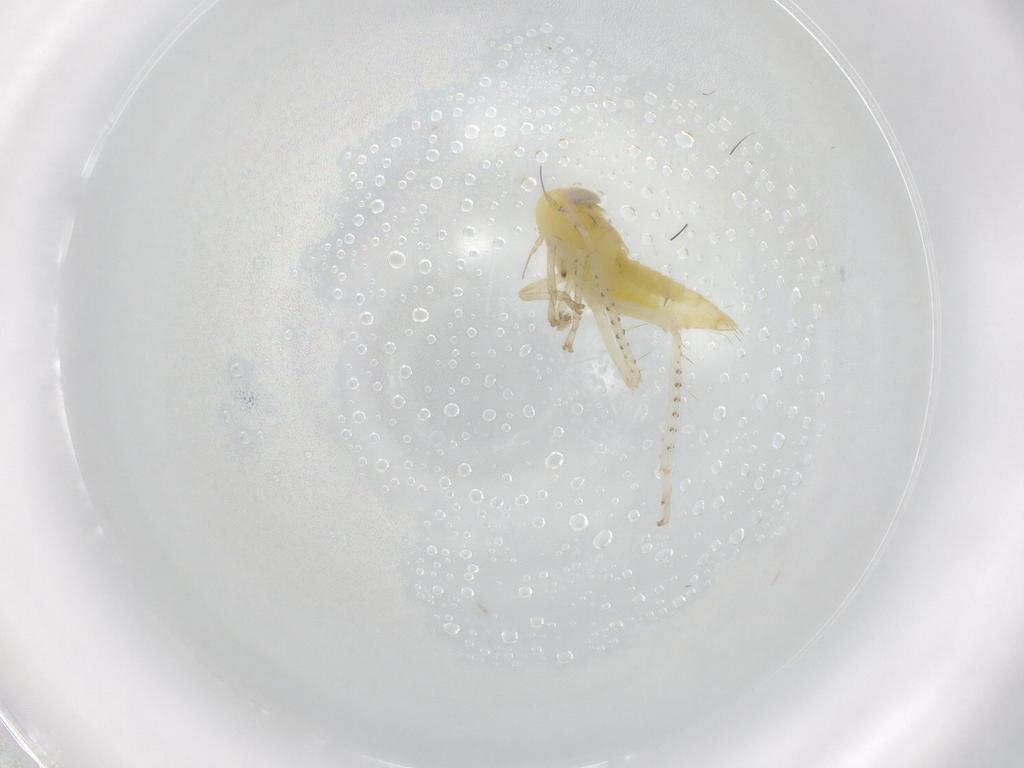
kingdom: Animalia
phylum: Arthropoda
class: Insecta
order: Hemiptera
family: Cicadellidae
